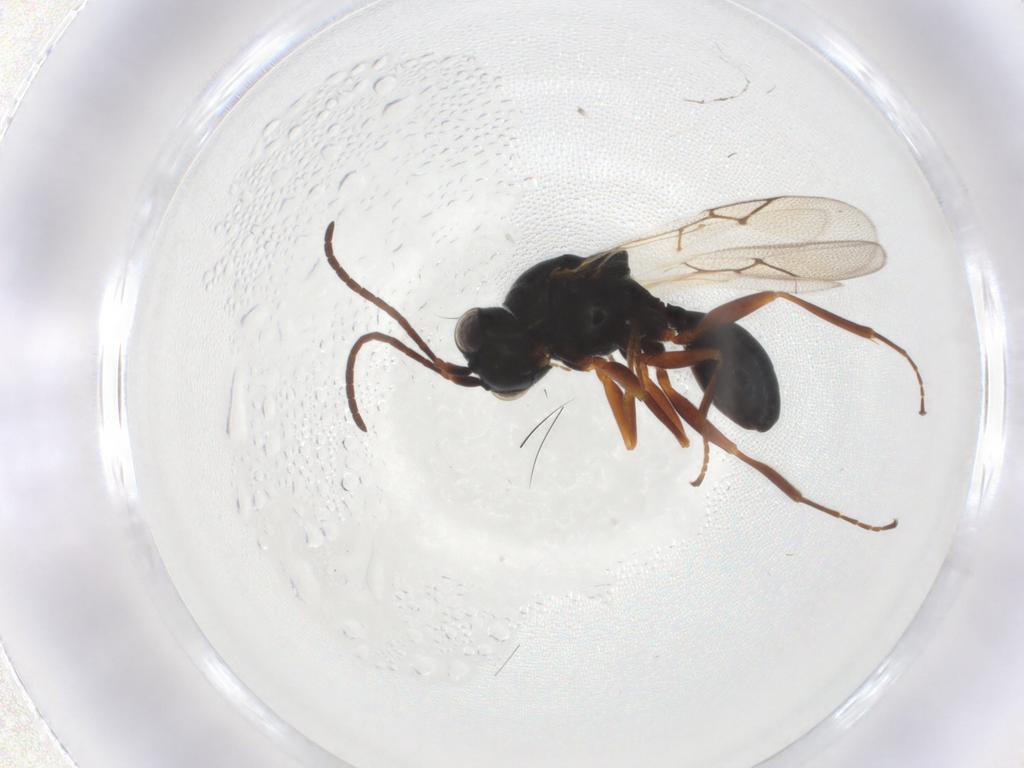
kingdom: Animalia
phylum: Arthropoda
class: Insecta
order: Hymenoptera
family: Figitidae
